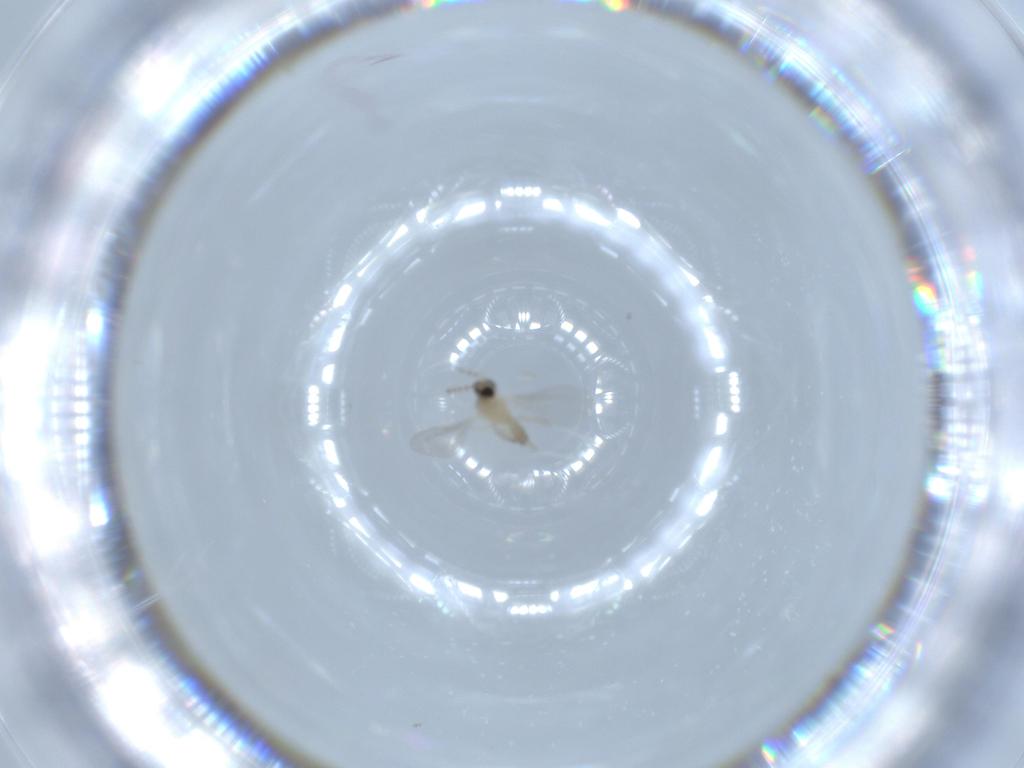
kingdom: Animalia
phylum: Arthropoda
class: Insecta
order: Diptera
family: Cecidomyiidae
